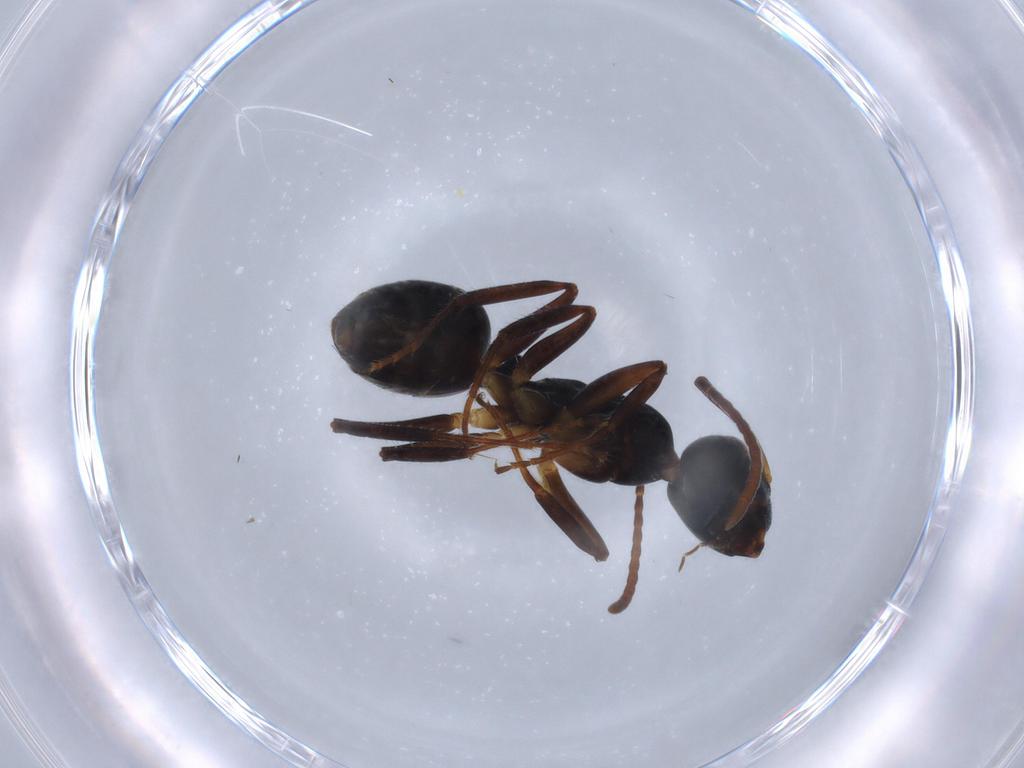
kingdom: Animalia
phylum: Arthropoda
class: Insecta
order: Hymenoptera
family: Formicidae
